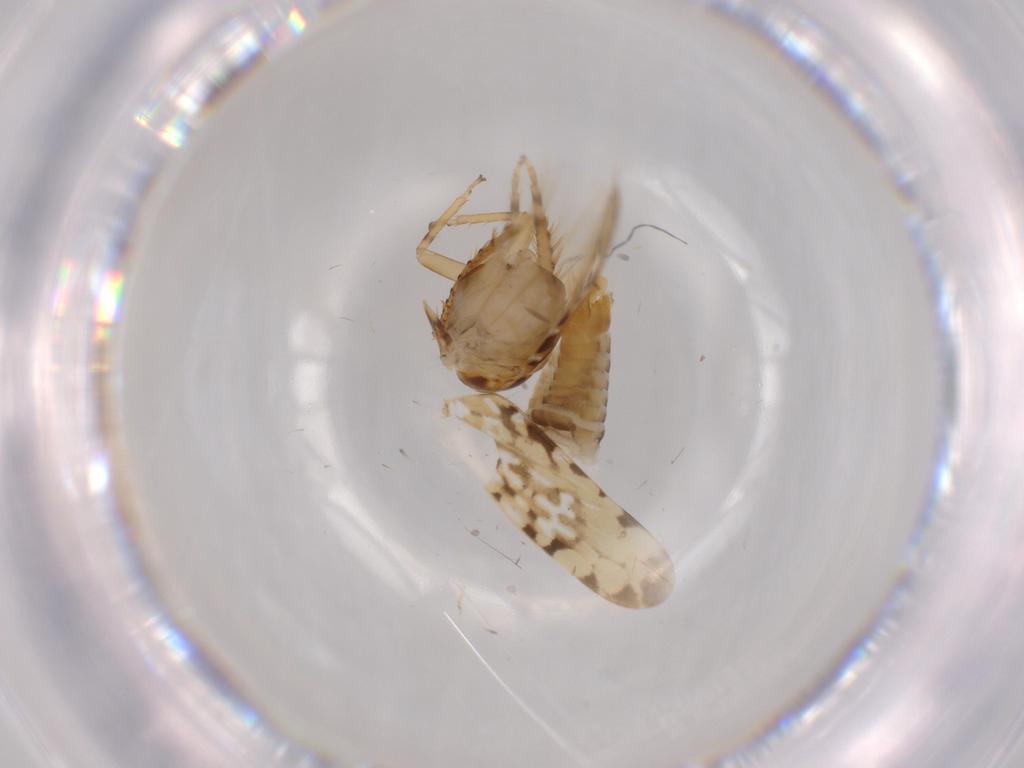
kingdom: Animalia
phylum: Arthropoda
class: Insecta
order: Hemiptera
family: Cicadellidae
